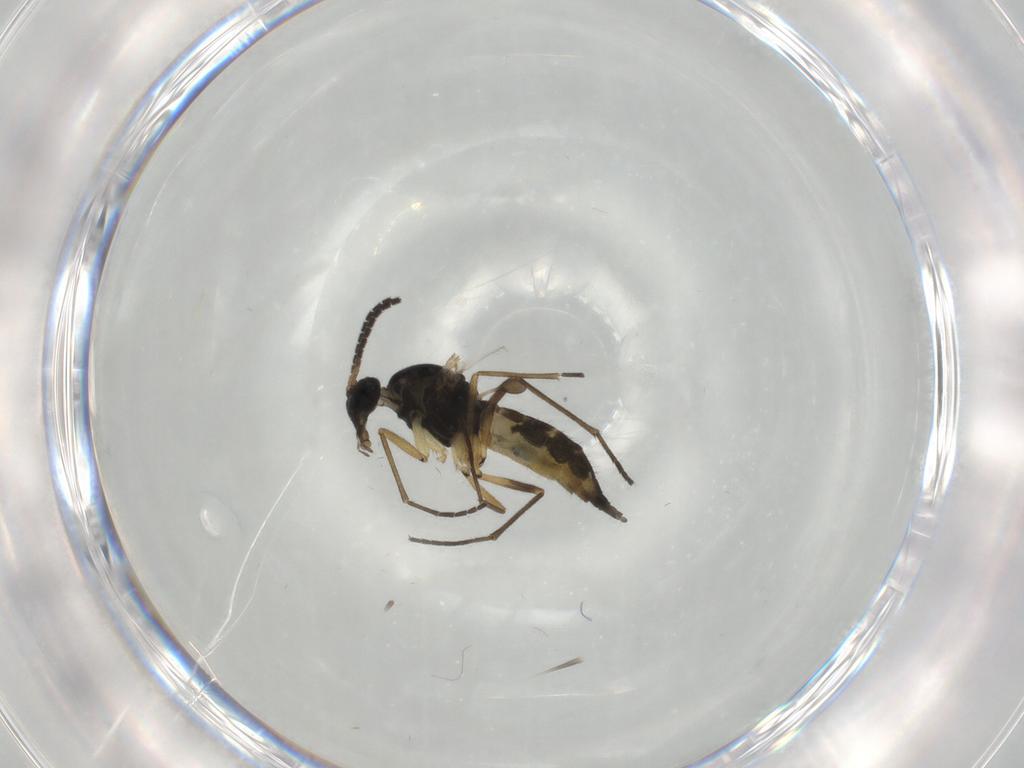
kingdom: Animalia
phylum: Arthropoda
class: Insecta
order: Diptera
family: Sciaridae
